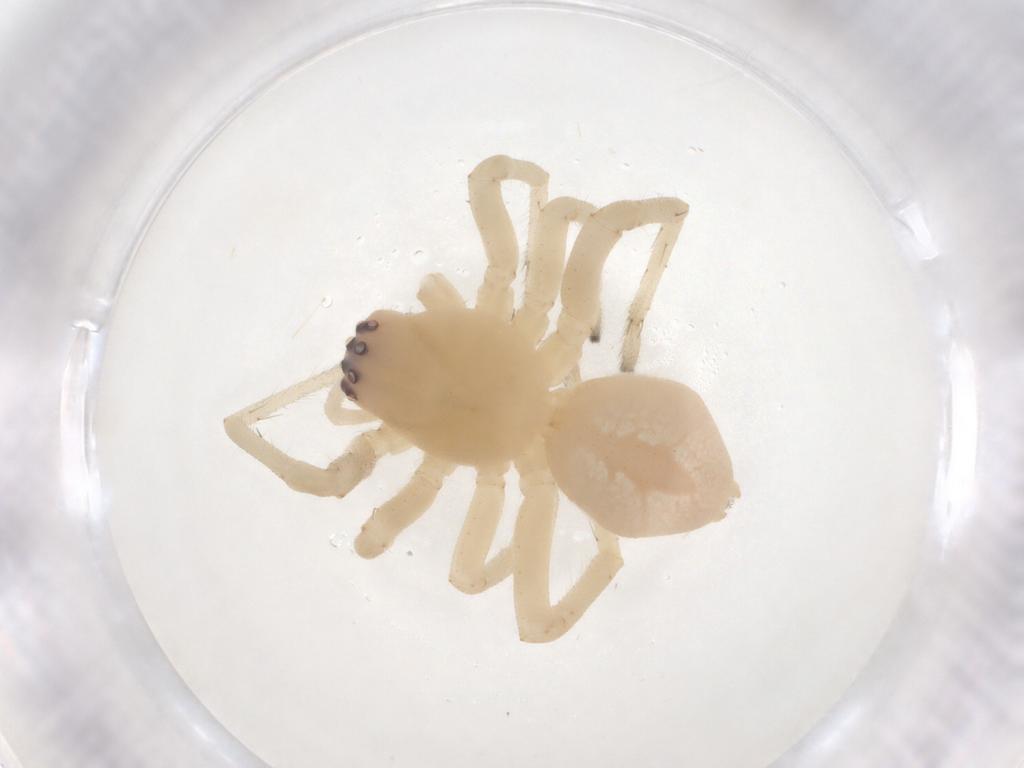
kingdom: Animalia
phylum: Arthropoda
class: Arachnida
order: Araneae
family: Cheiracanthiidae
